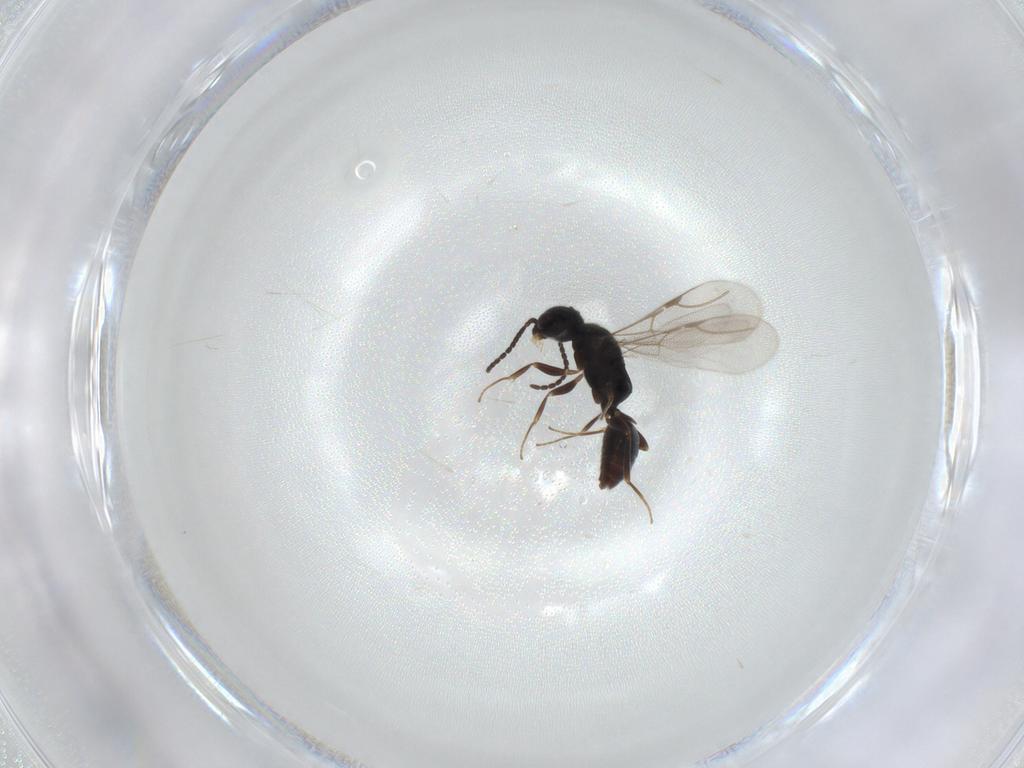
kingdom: Animalia
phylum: Arthropoda
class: Insecta
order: Hymenoptera
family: Bethylidae
